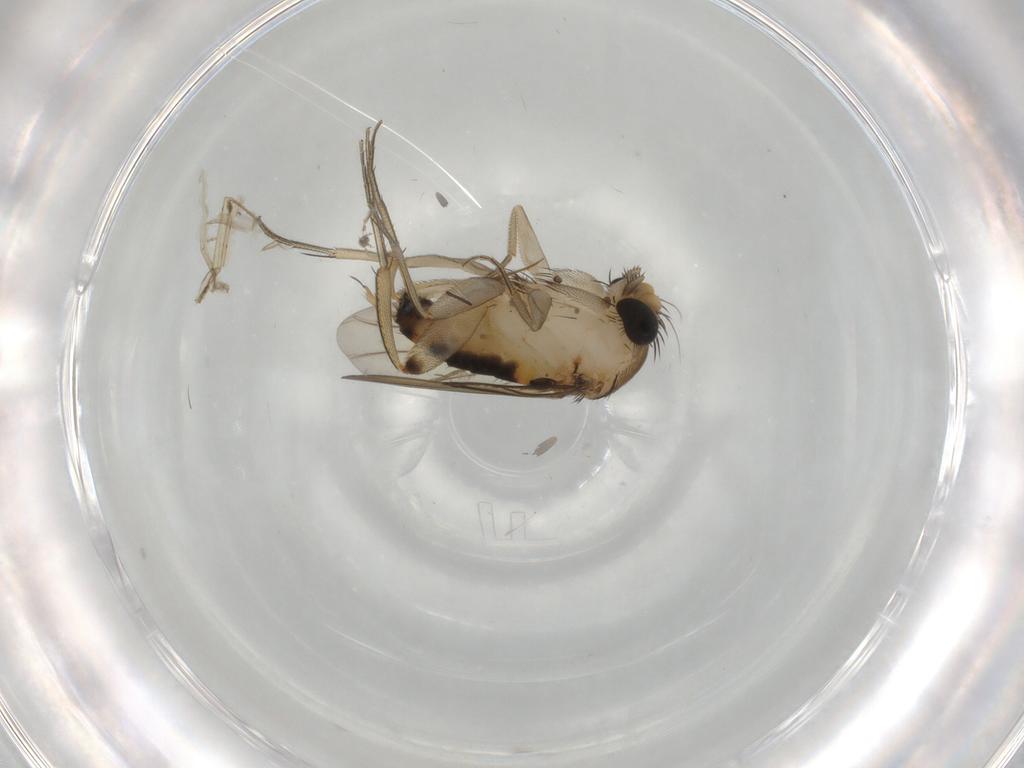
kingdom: Animalia
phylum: Arthropoda
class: Insecta
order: Diptera
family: Phoridae
